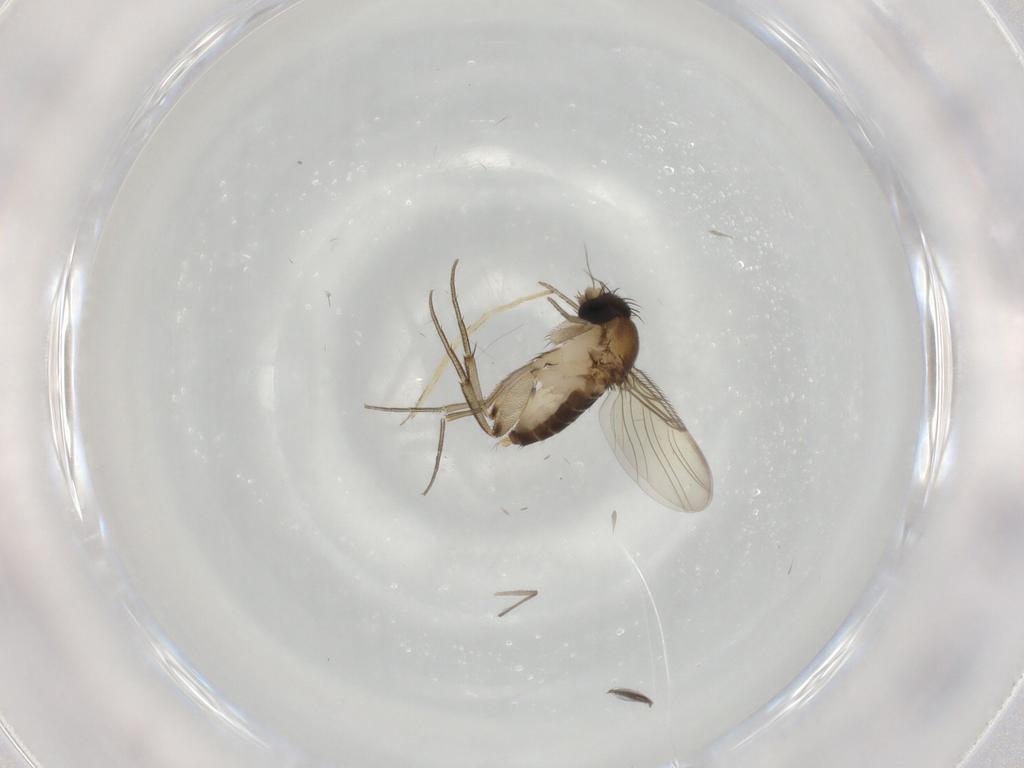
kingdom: Animalia
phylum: Arthropoda
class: Insecta
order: Diptera
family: Phoridae
